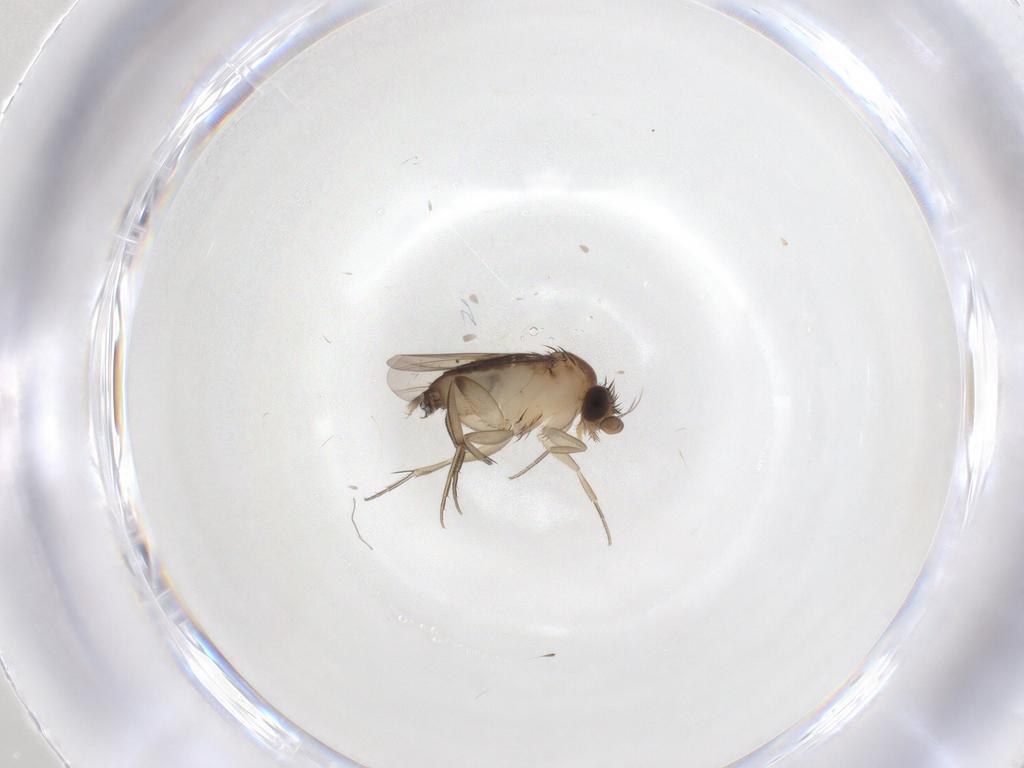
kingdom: Animalia
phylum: Arthropoda
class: Insecta
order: Diptera
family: Phoridae
